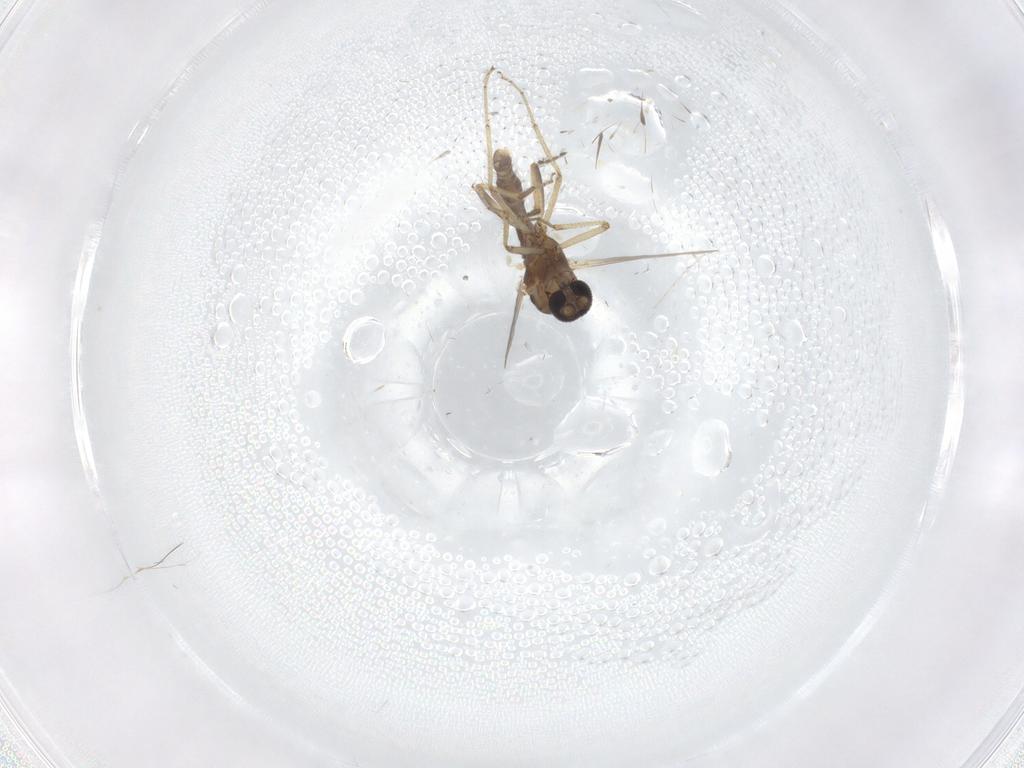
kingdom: Animalia
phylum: Arthropoda
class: Insecta
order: Diptera
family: Ceratopogonidae
